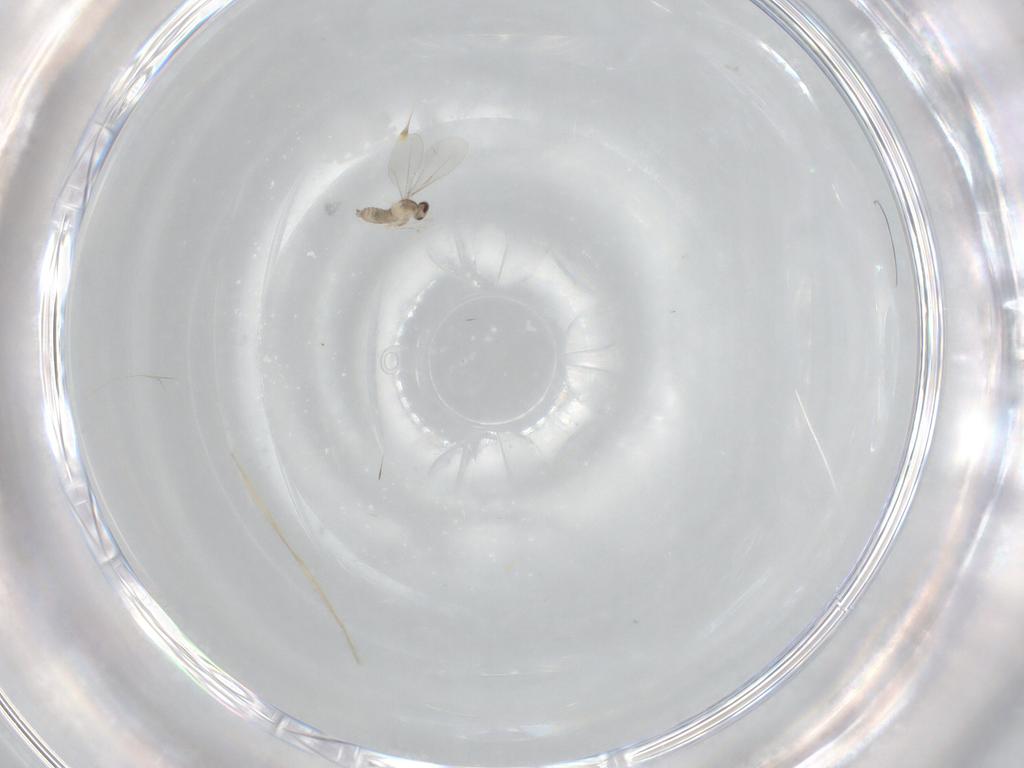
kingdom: Animalia
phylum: Arthropoda
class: Insecta
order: Diptera
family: Cecidomyiidae
